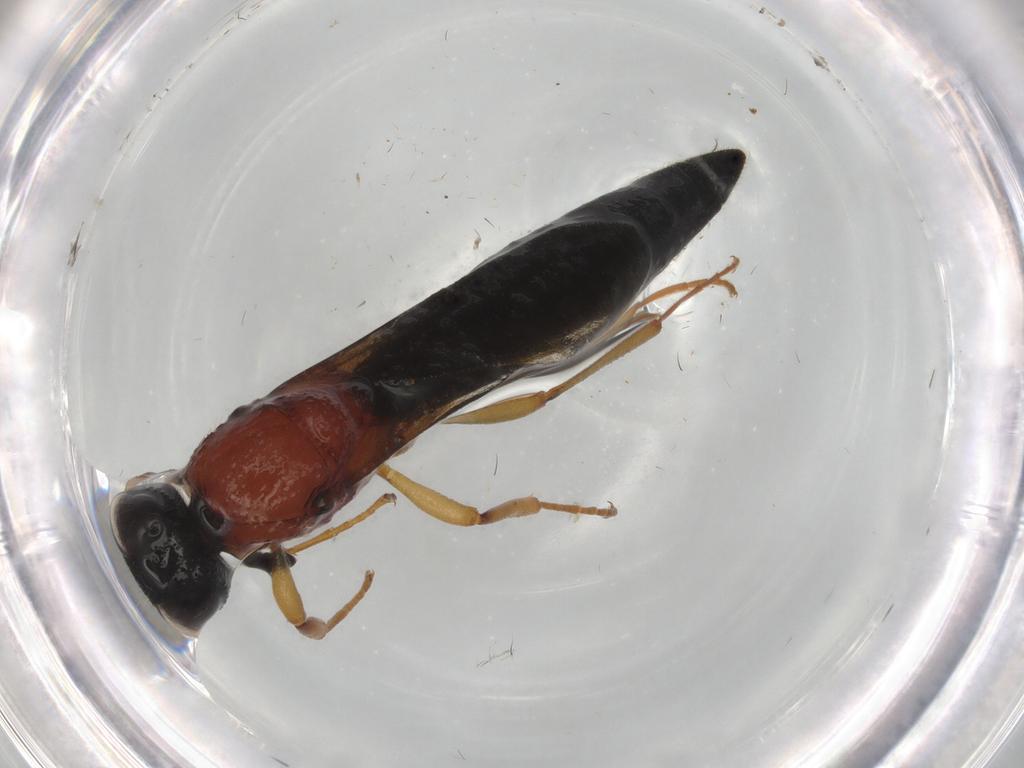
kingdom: Animalia
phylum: Arthropoda
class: Insecta
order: Hymenoptera
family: Scelionidae
